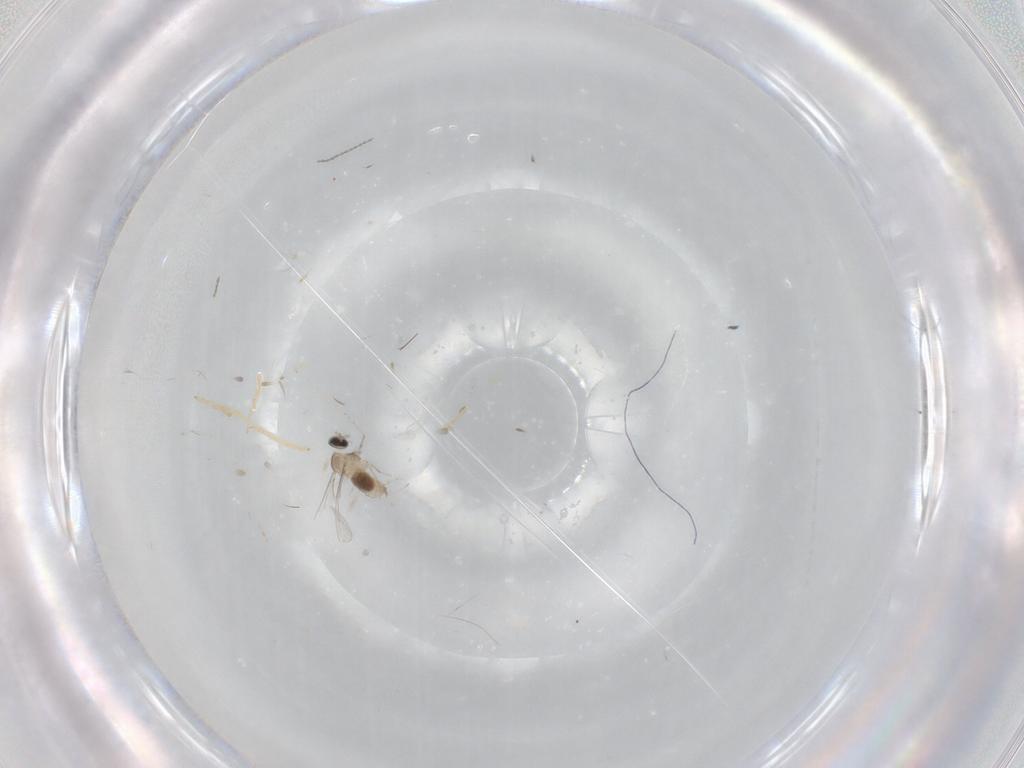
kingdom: Animalia
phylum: Arthropoda
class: Insecta
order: Diptera
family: Cecidomyiidae
